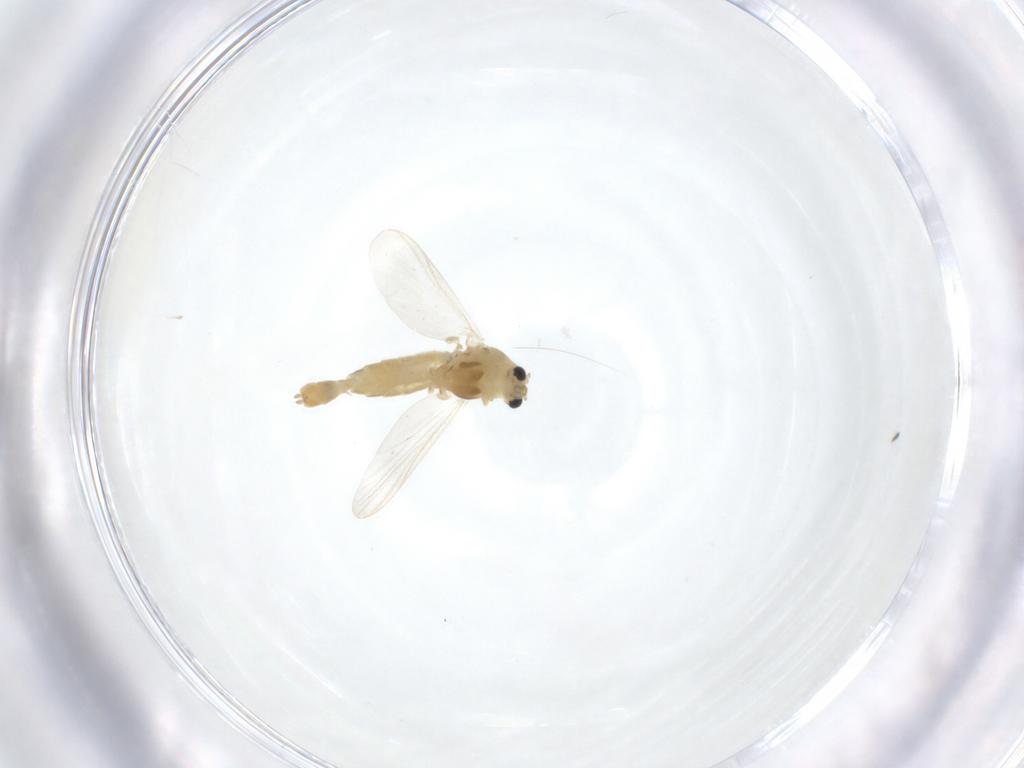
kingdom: Animalia
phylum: Arthropoda
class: Insecta
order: Diptera
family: Chironomidae
